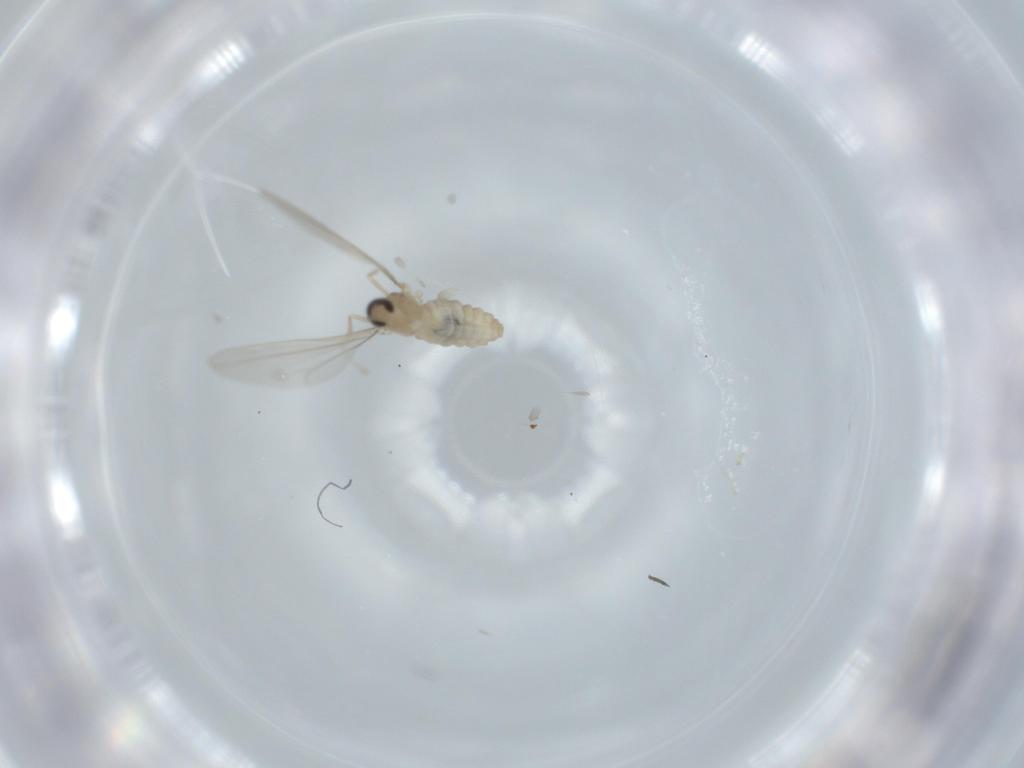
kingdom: Animalia
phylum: Arthropoda
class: Insecta
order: Diptera
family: Cecidomyiidae
